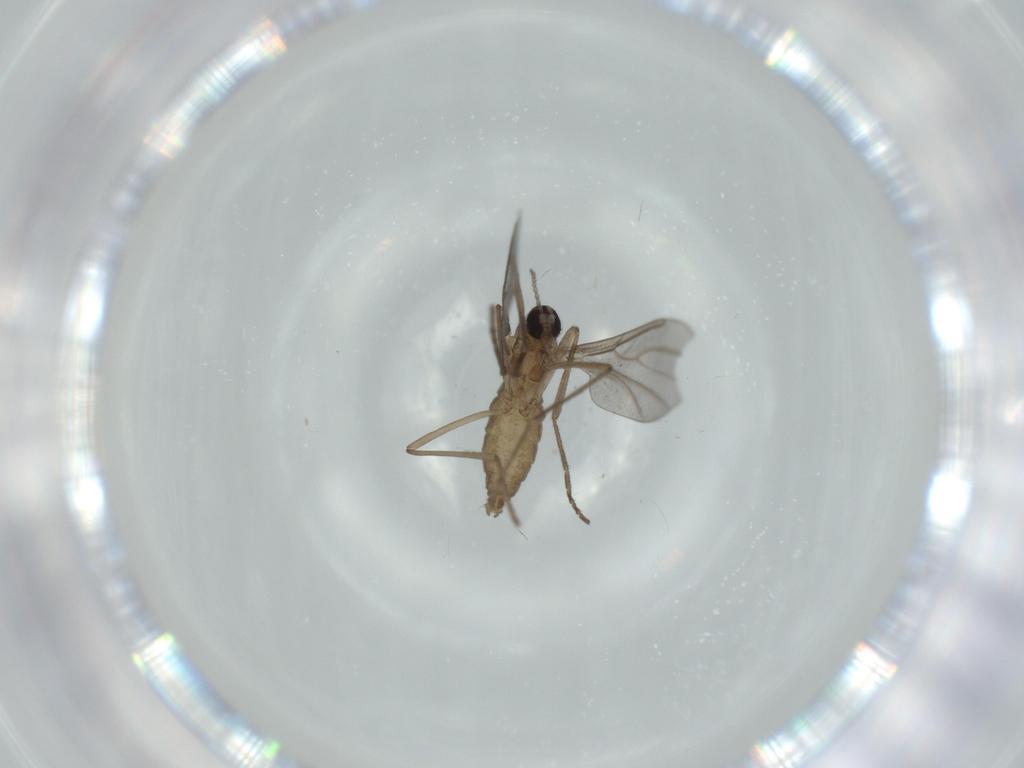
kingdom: Animalia
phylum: Arthropoda
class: Insecta
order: Diptera
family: Cecidomyiidae
